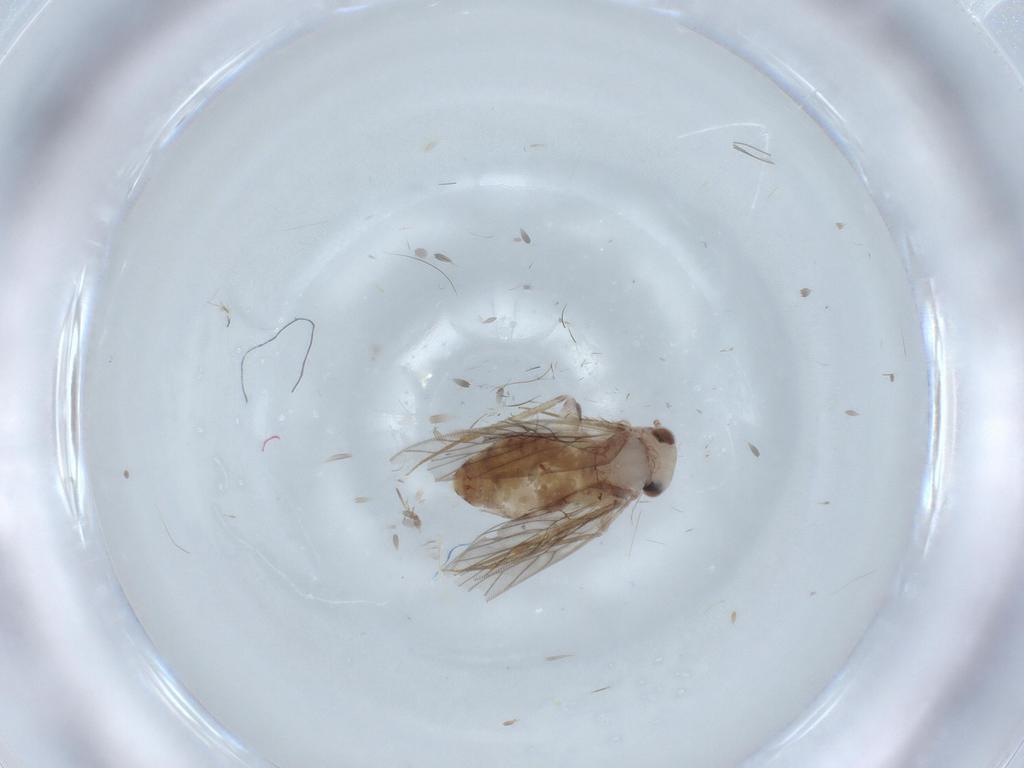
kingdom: Animalia
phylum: Arthropoda
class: Insecta
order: Psocodea
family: Lepidopsocidae
